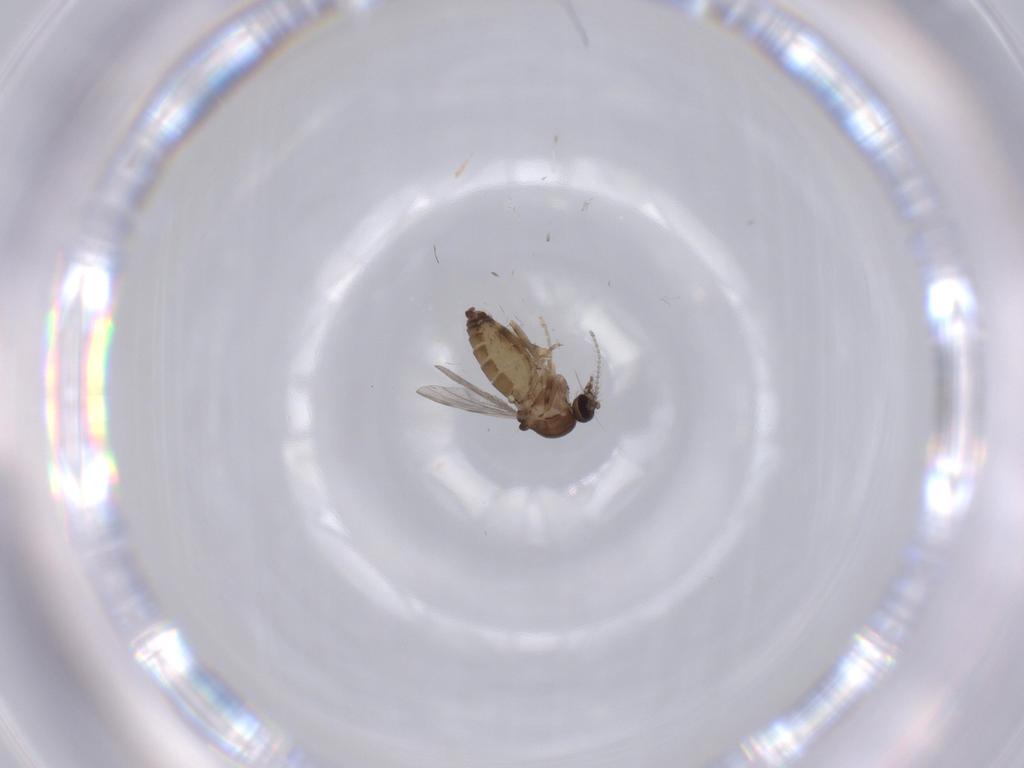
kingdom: Animalia
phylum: Arthropoda
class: Insecta
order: Diptera
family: Ceratopogonidae
